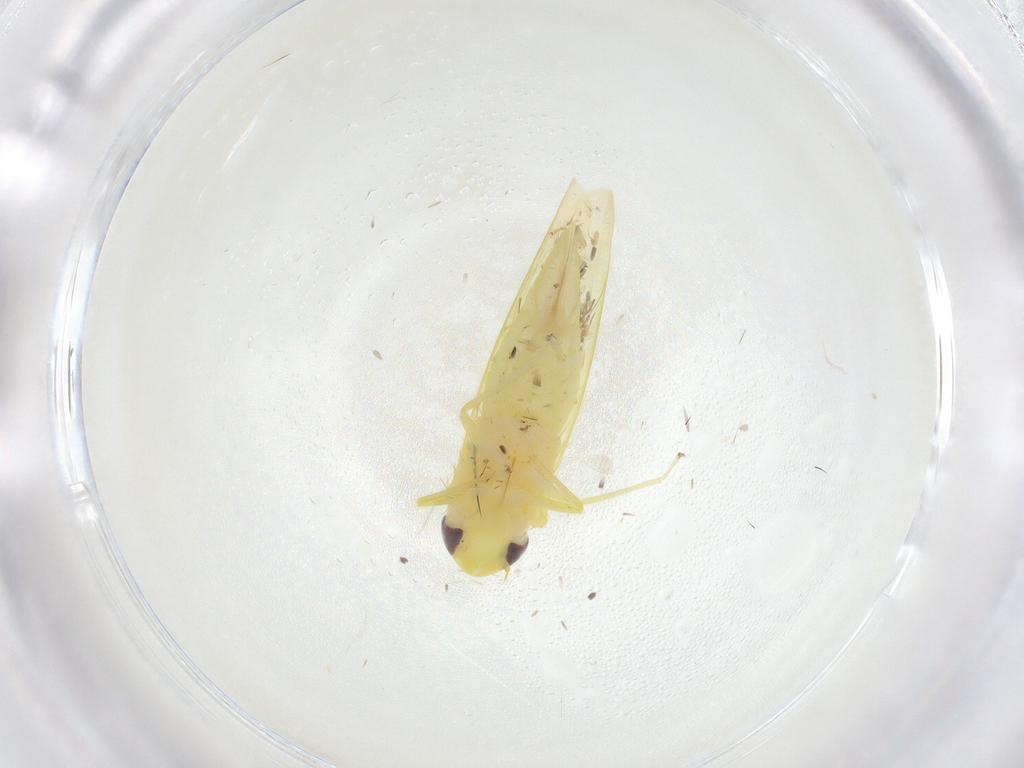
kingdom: Animalia
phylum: Arthropoda
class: Insecta
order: Hemiptera
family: Cicadellidae
